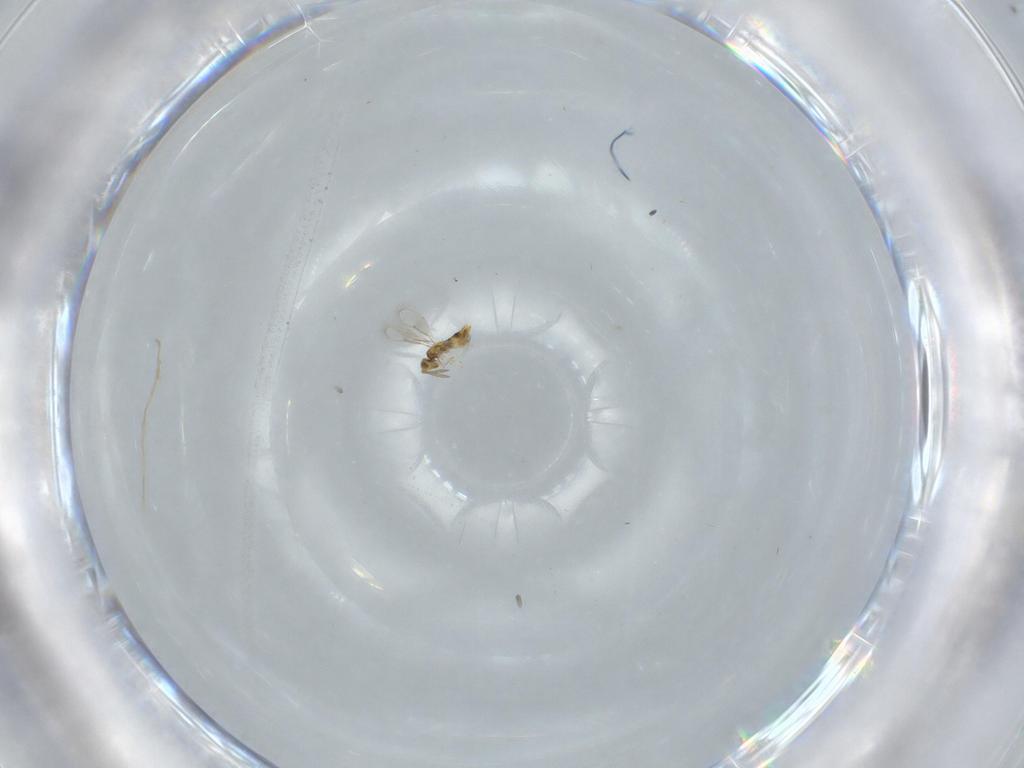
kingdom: Animalia
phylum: Arthropoda
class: Insecta
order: Hymenoptera
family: Aphelinidae
